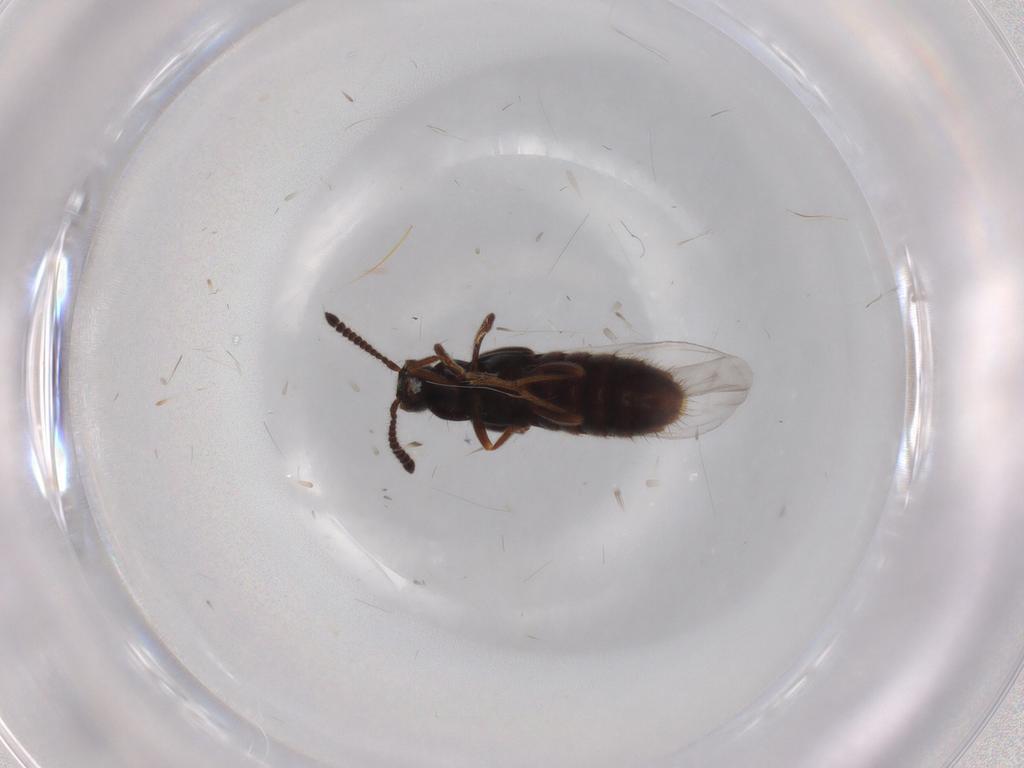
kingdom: Animalia
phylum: Arthropoda
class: Insecta
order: Coleoptera
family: Curculionidae
